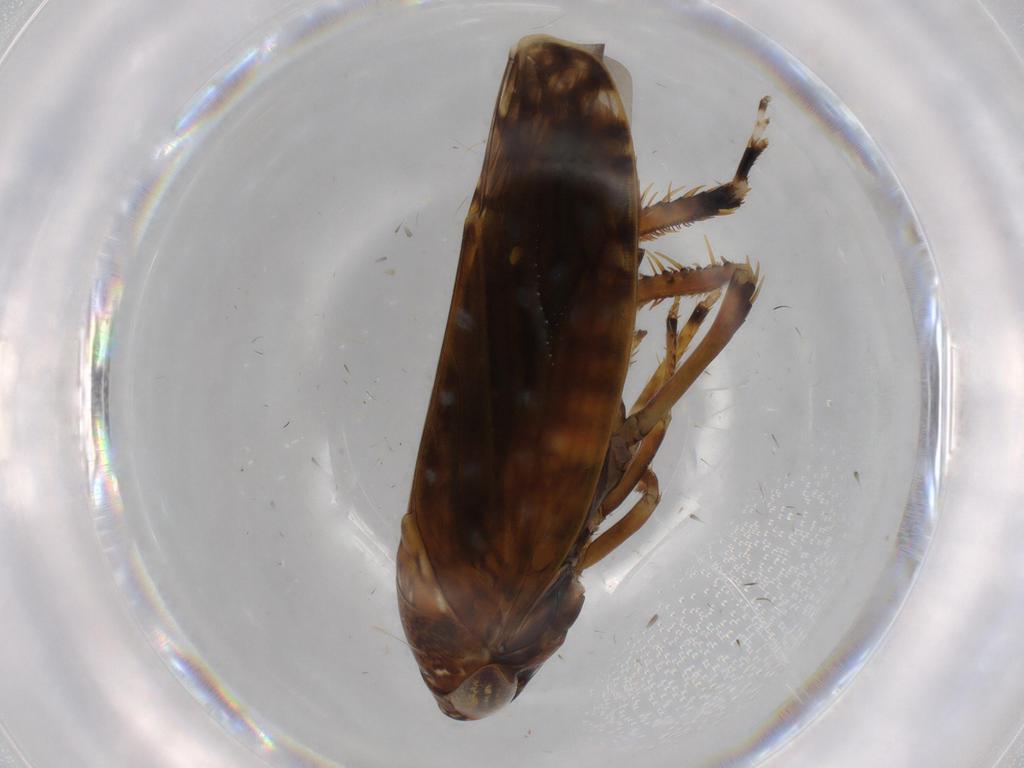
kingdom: Animalia
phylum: Arthropoda
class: Insecta
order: Hemiptera
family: Cicadellidae
